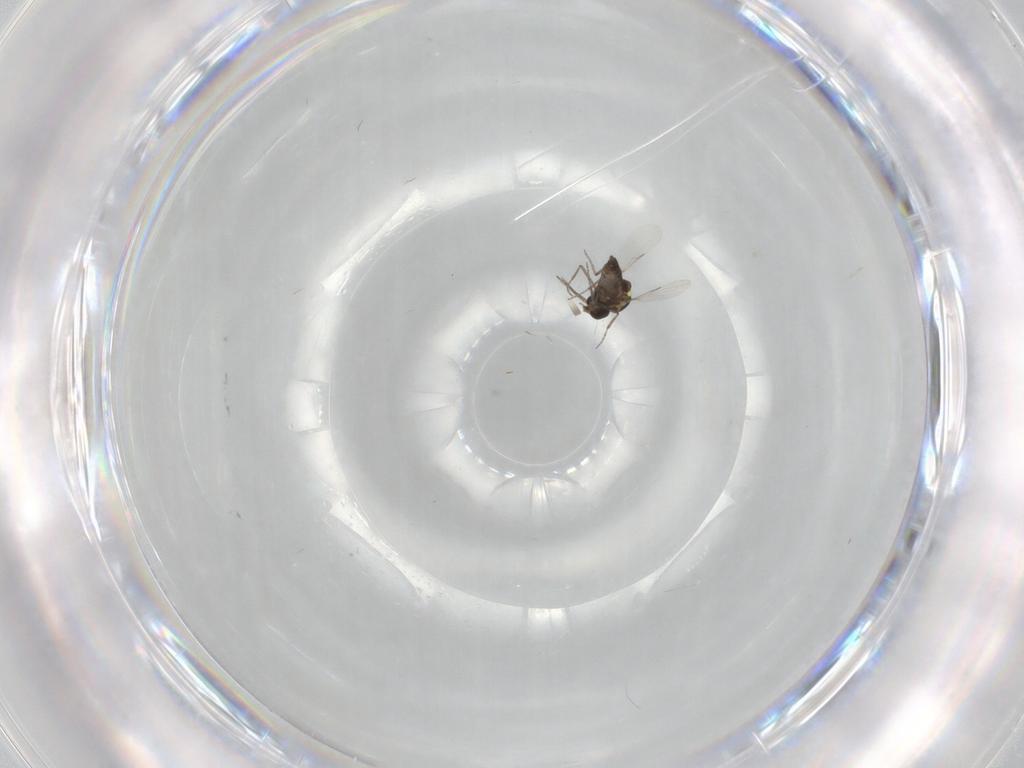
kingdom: Animalia
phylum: Arthropoda
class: Insecta
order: Diptera
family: Ceratopogonidae
